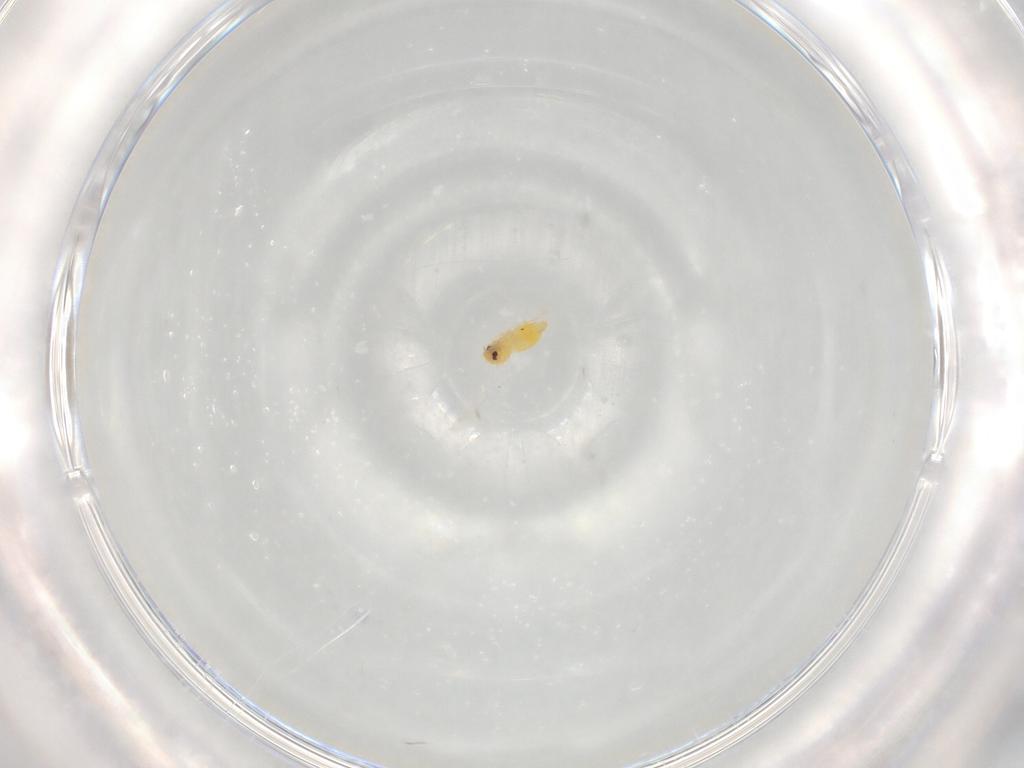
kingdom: Animalia
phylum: Arthropoda
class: Insecta
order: Hemiptera
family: Aleyrodidae
